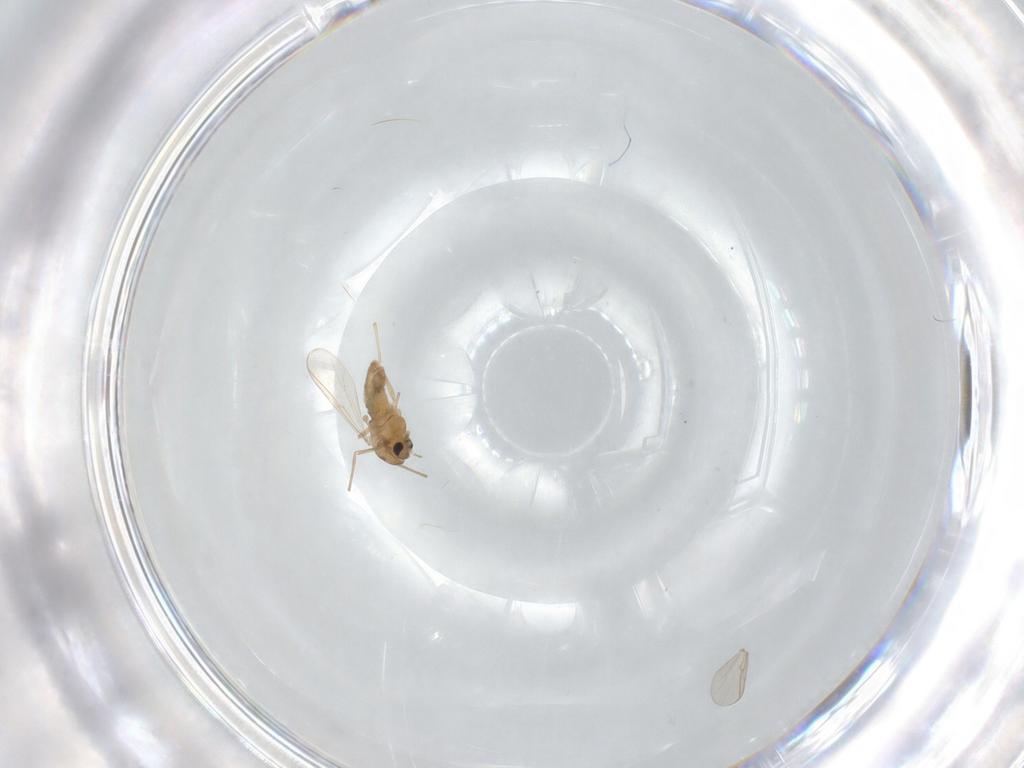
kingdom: Animalia
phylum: Arthropoda
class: Insecta
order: Diptera
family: Chironomidae
